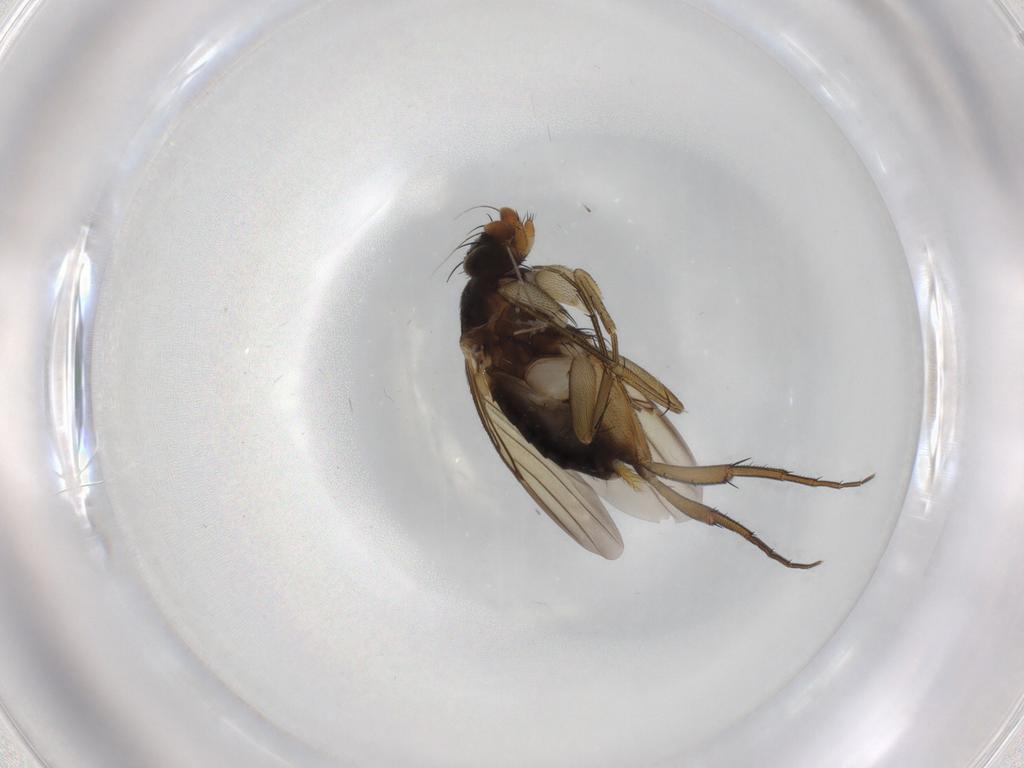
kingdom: Animalia
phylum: Arthropoda
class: Insecta
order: Diptera
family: Phoridae
